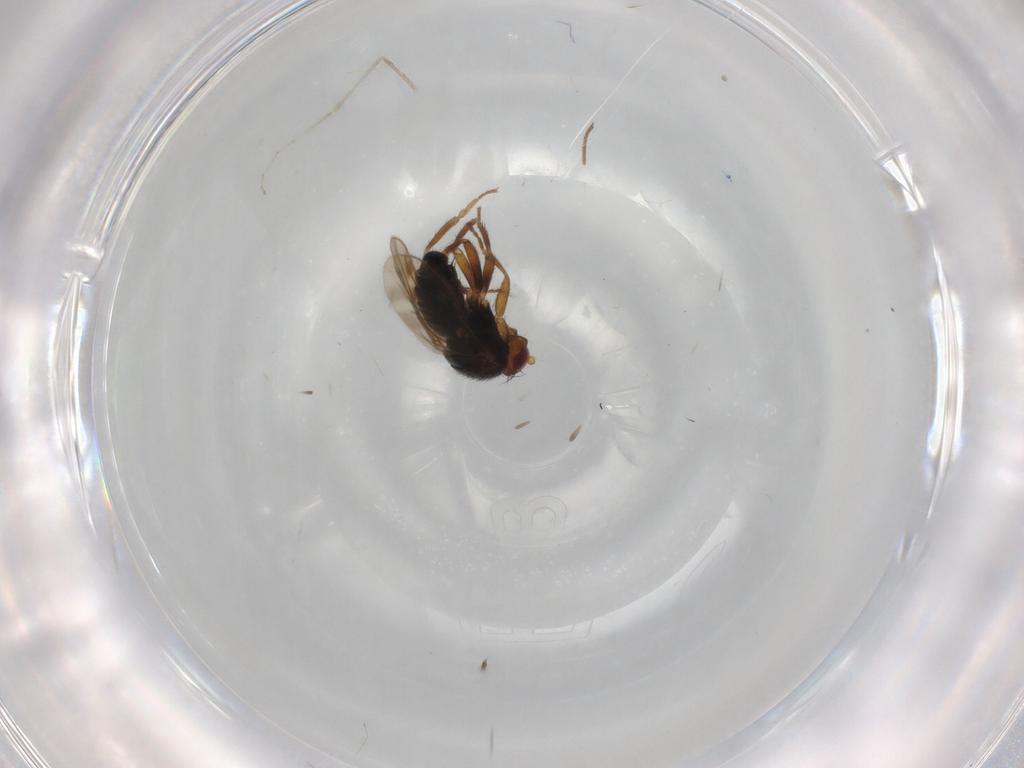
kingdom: Animalia
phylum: Arthropoda
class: Insecta
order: Diptera
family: Sphaeroceridae
